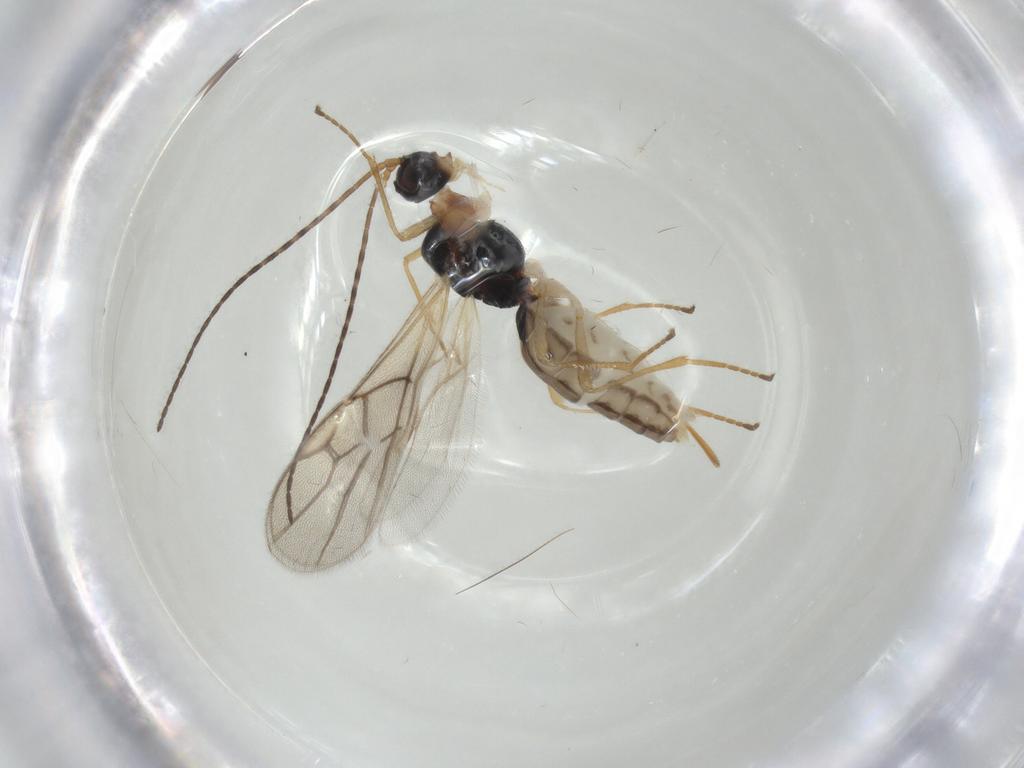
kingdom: Animalia
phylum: Arthropoda
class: Insecta
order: Hymenoptera
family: Braconidae
